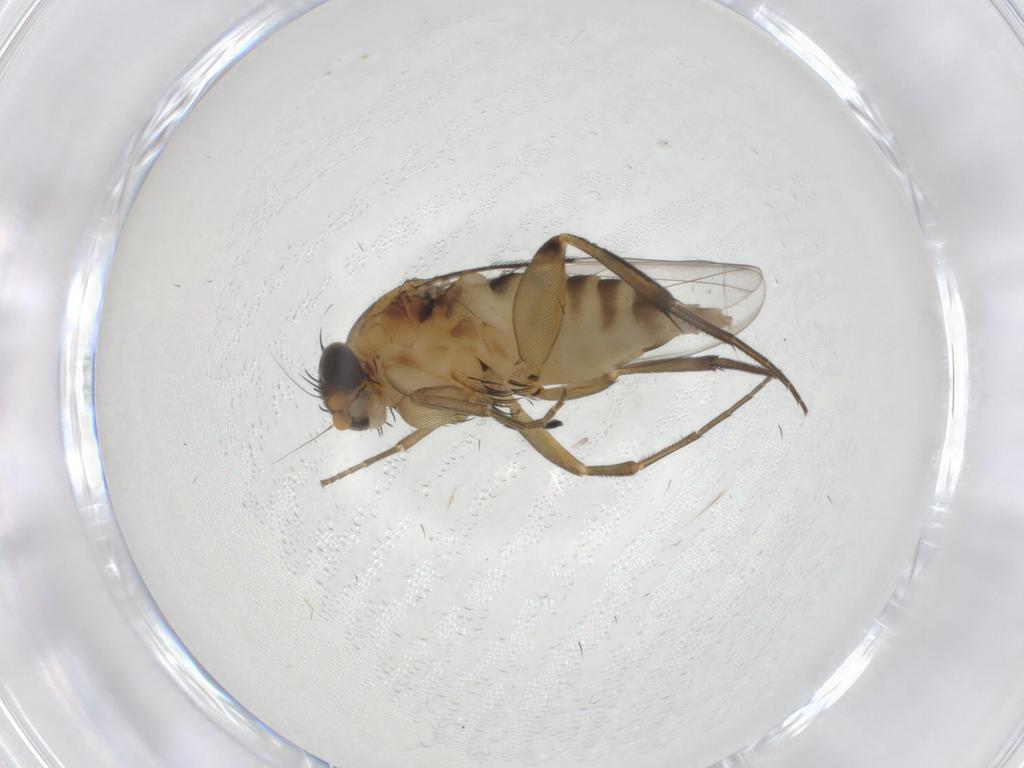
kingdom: Animalia
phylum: Arthropoda
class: Insecta
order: Diptera
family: Phoridae
